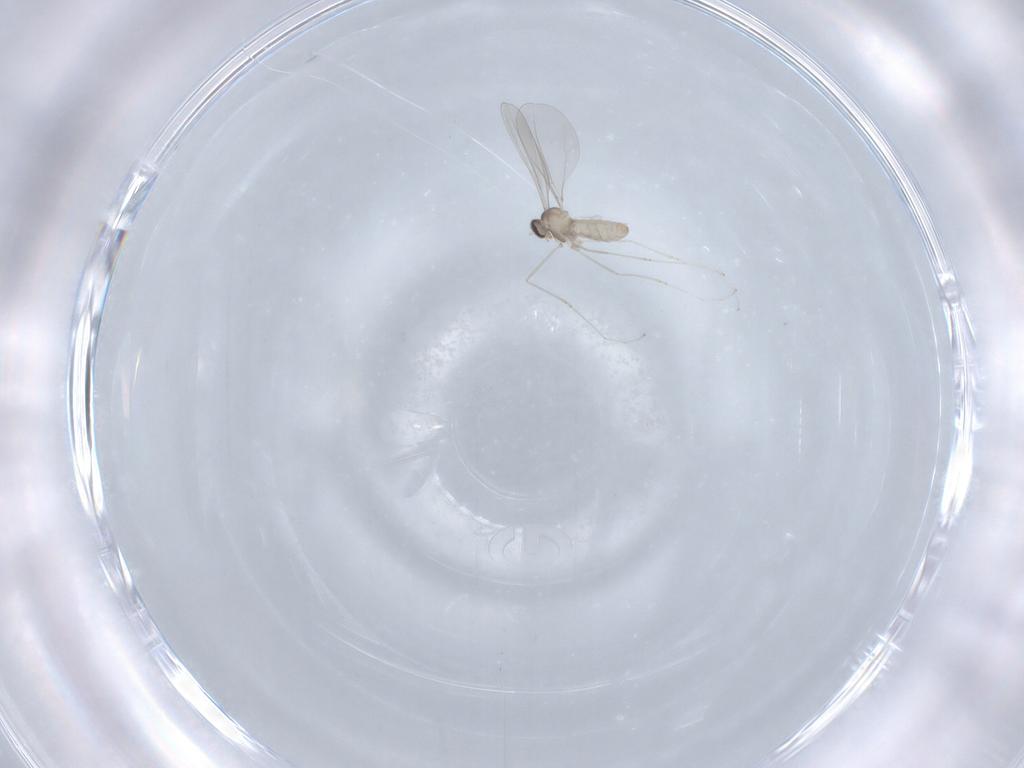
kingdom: Animalia
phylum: Arthropoda
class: Insecta
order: Diptera
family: Cecidomyiidae
